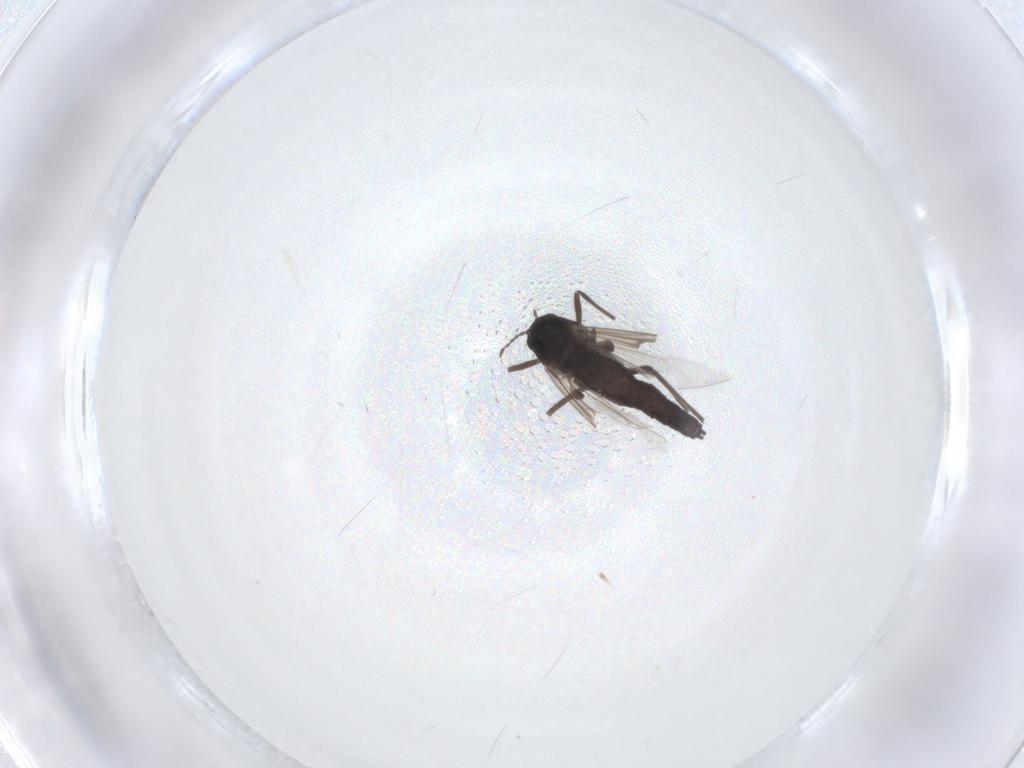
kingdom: Animalia
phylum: Arthropoda
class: Insecta
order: Diptera
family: Chironomidae
